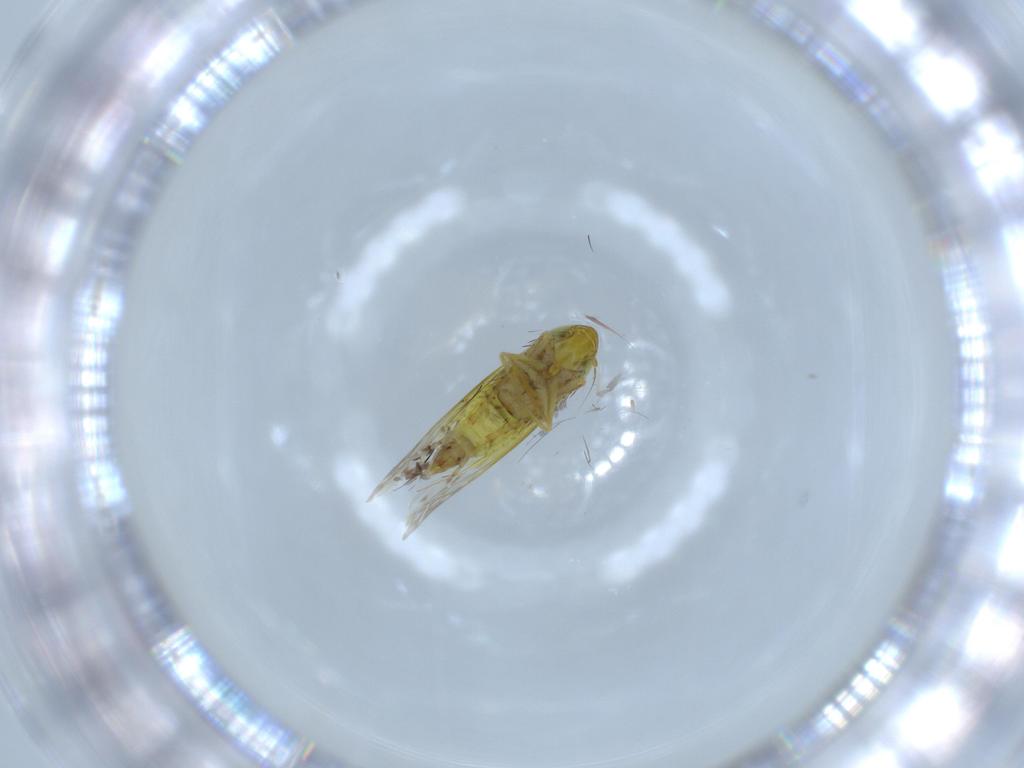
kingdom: Animalia
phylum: Arthropoda
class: Insecta
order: Hemiptera
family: Cicadellidae
